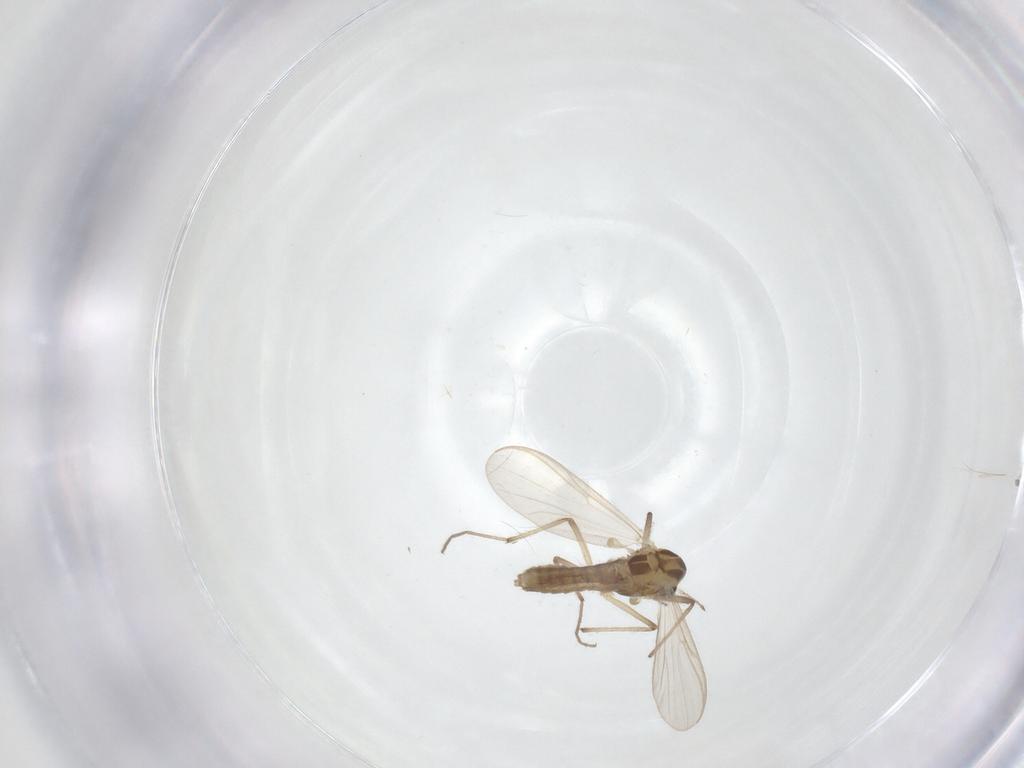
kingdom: Animalia
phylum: Arthropoda
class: Insecta
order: Diptera
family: Chironomidae
